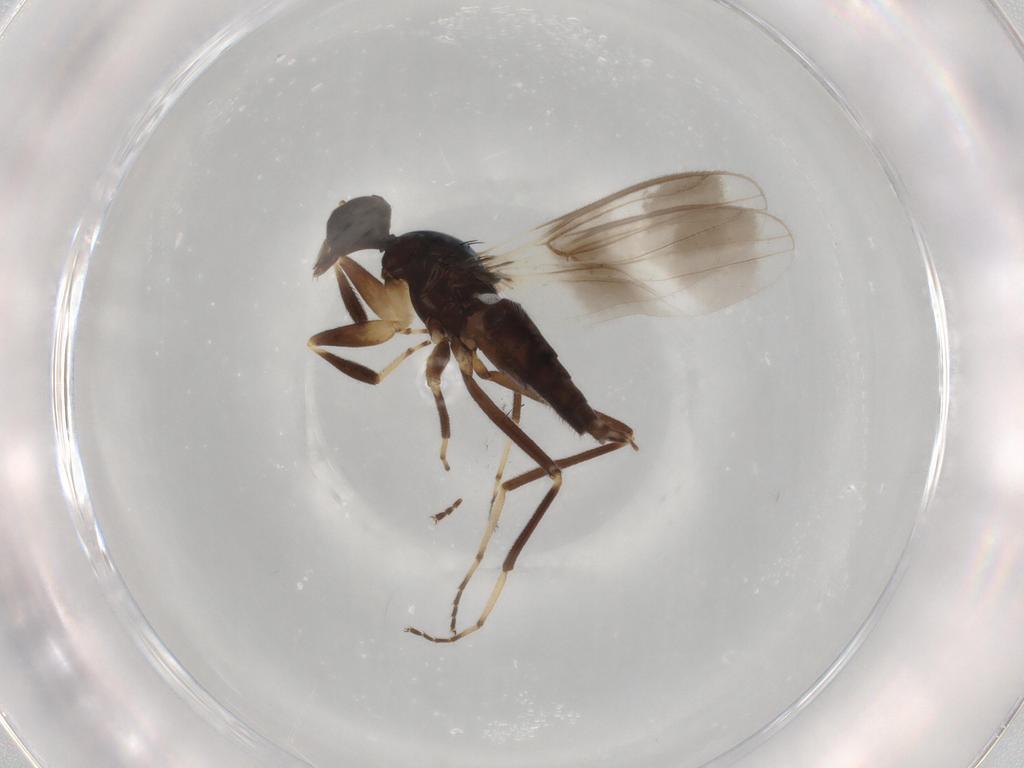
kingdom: Animalia
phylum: Arthropoda
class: Insecta
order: Diptera
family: Hybotidae
